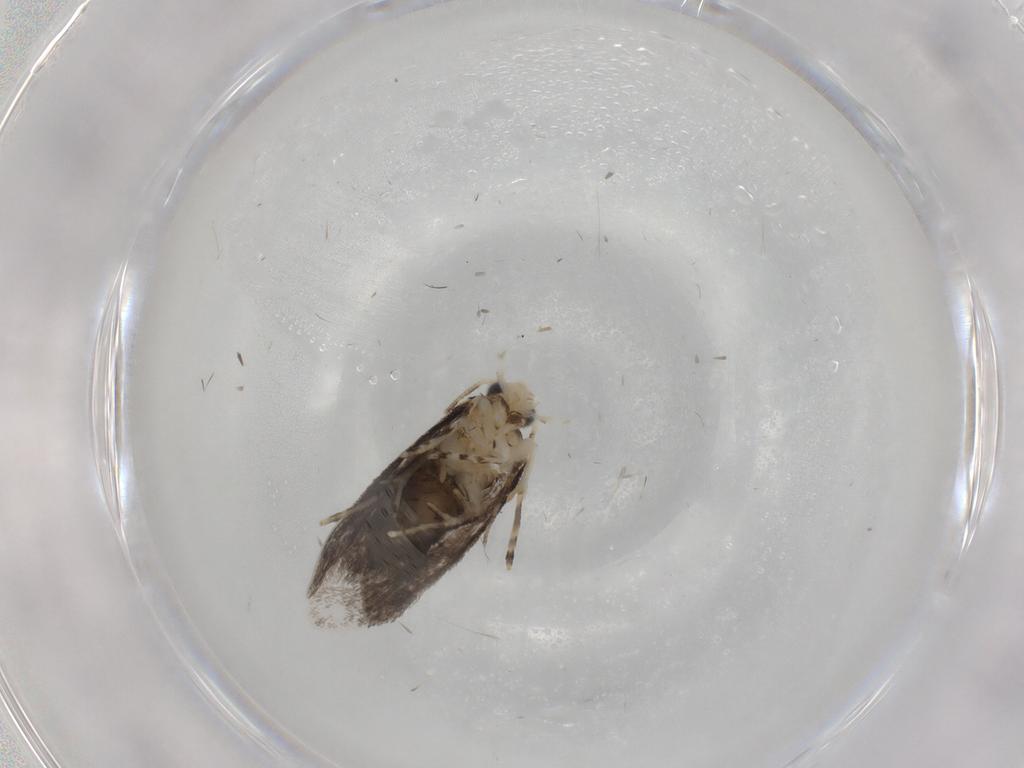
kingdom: Animalia
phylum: Arthropoda
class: Insecta
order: Lepidoptera
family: Tineidae
